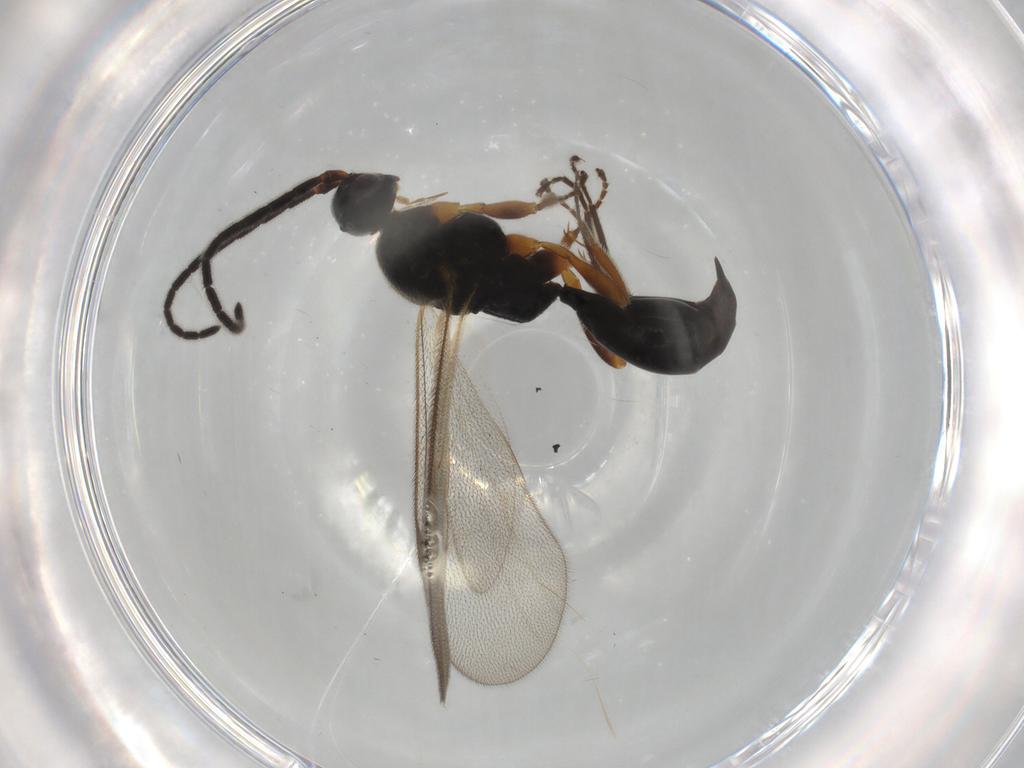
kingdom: Animalia
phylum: Arthropoda
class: Insecta
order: Hymenoptera
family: Proctotrupidae
